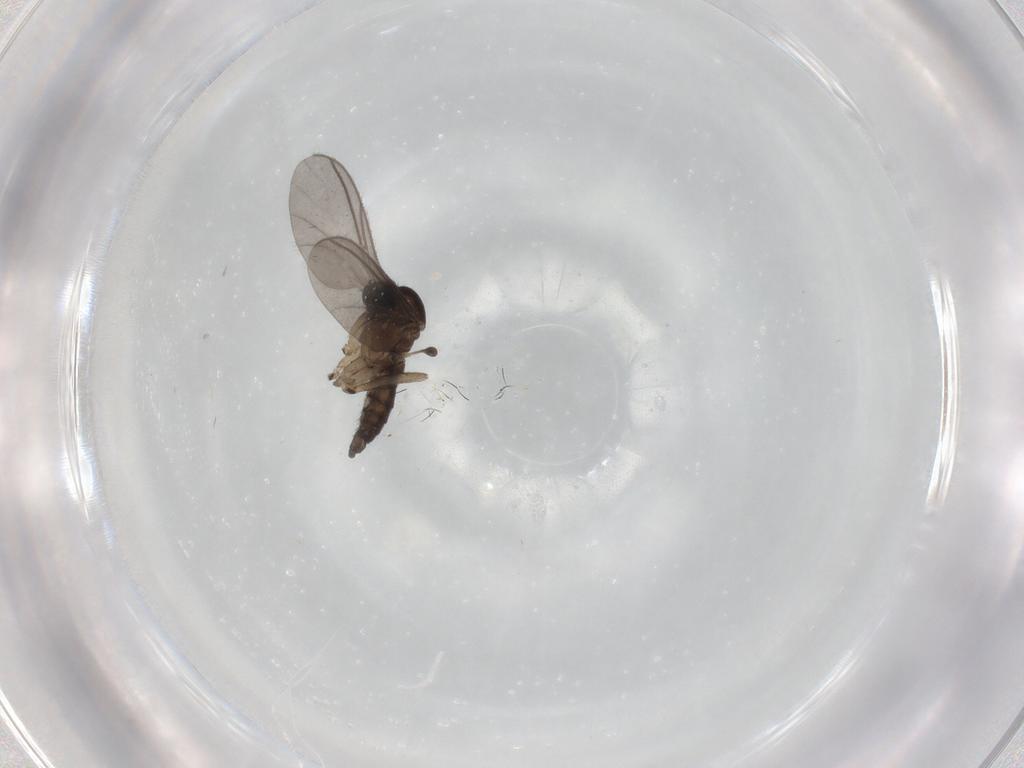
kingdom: Animalia
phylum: Arthropoda
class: Insecta
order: Diptera
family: Sciaridae
